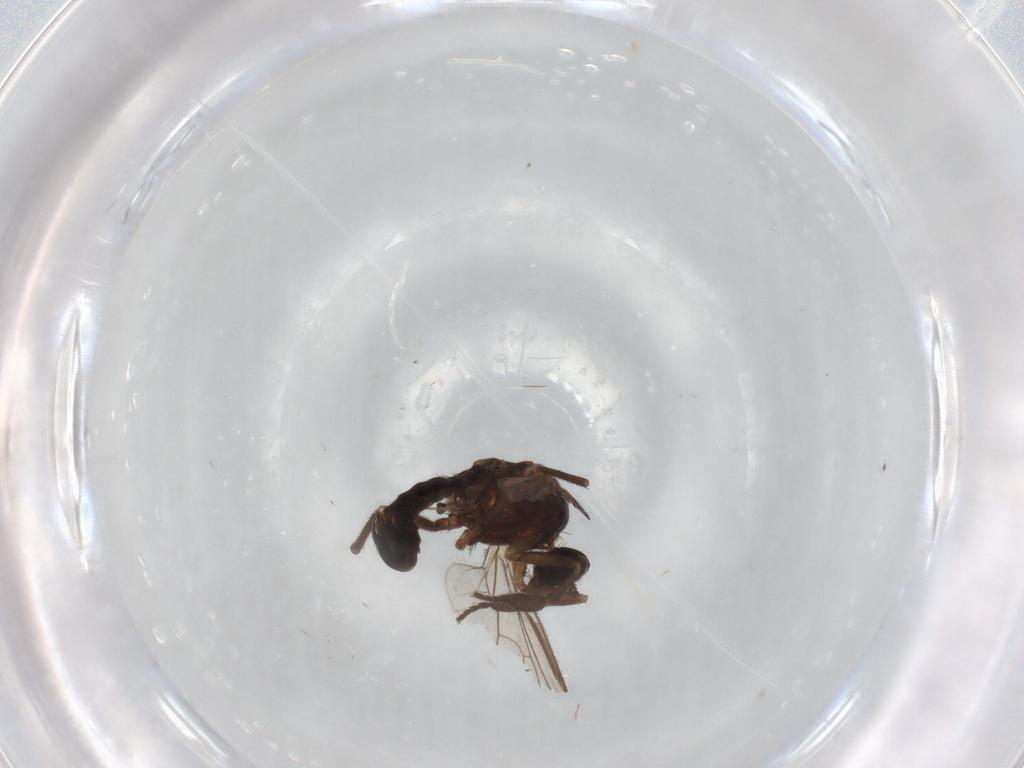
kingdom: Animalia
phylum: Arthropoda
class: Insecta
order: Diptera
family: Empididae
